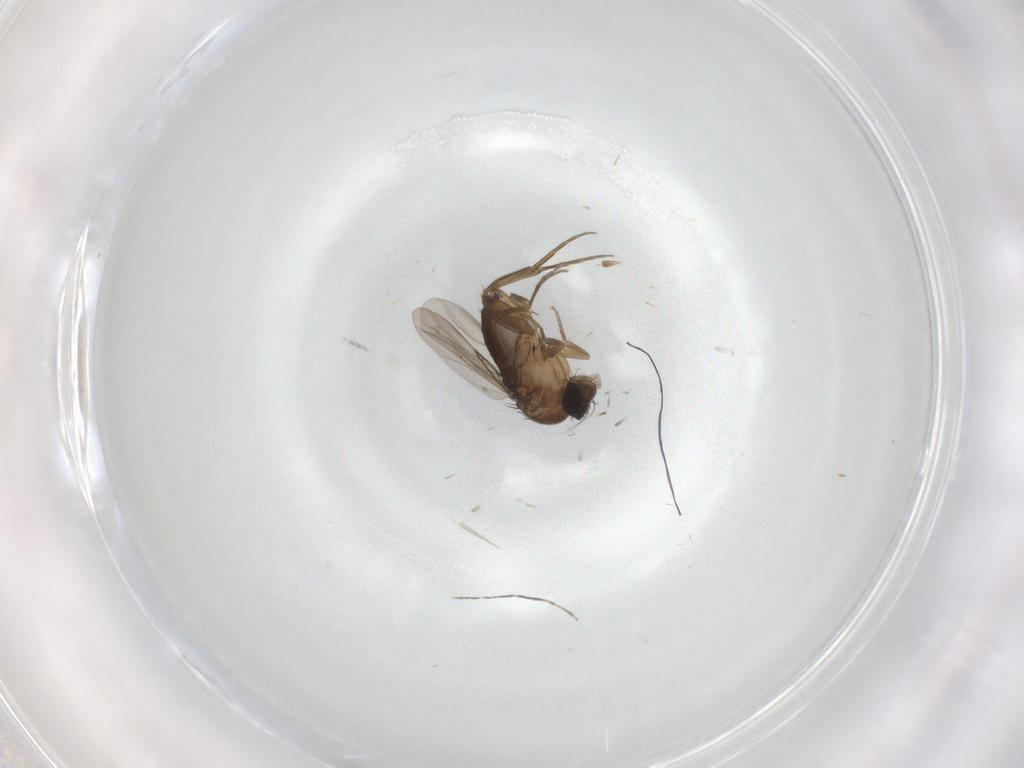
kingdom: Animalia
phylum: Arthropoda
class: Insecta
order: Diptera
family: Phoridae
